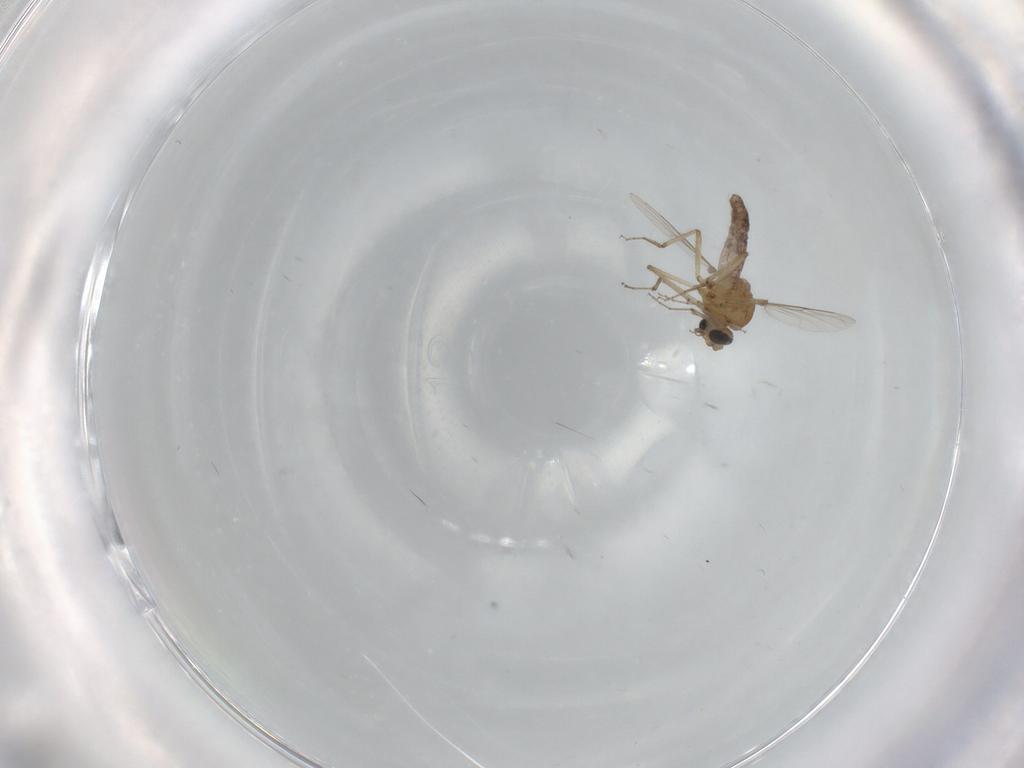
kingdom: Animalia
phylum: Arthropoda
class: Insecta
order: Diptera
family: Ceratopogonidae
